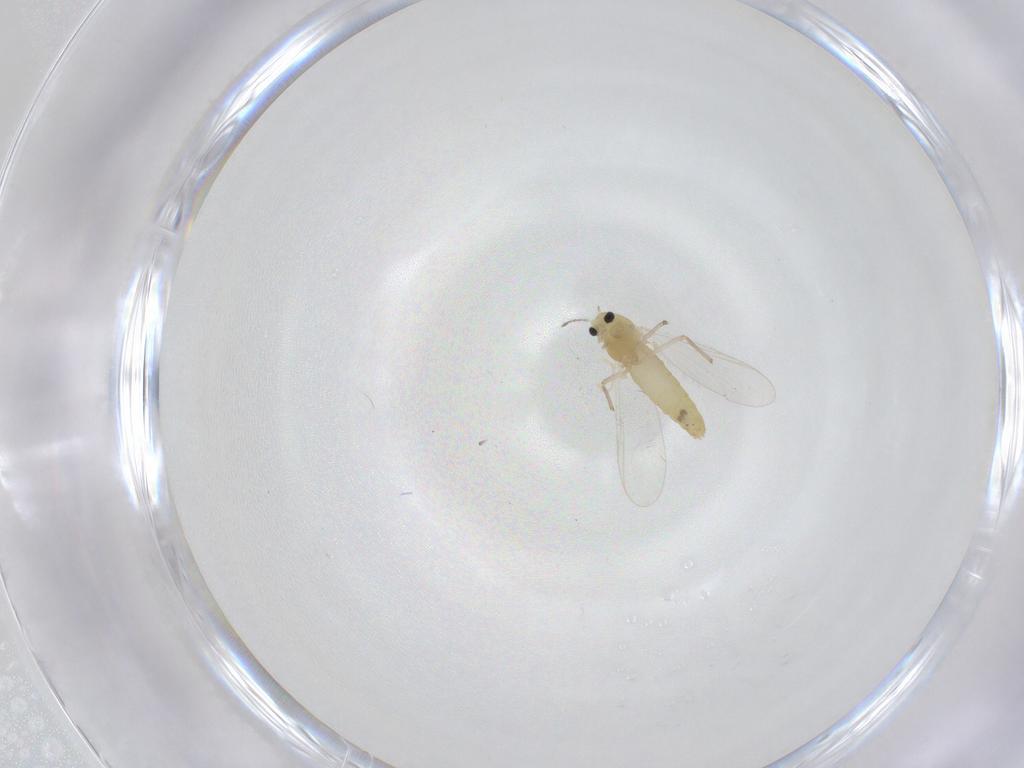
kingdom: Animalia
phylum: Arthropoda
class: Insecta
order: Diptera
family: Chironomidae
